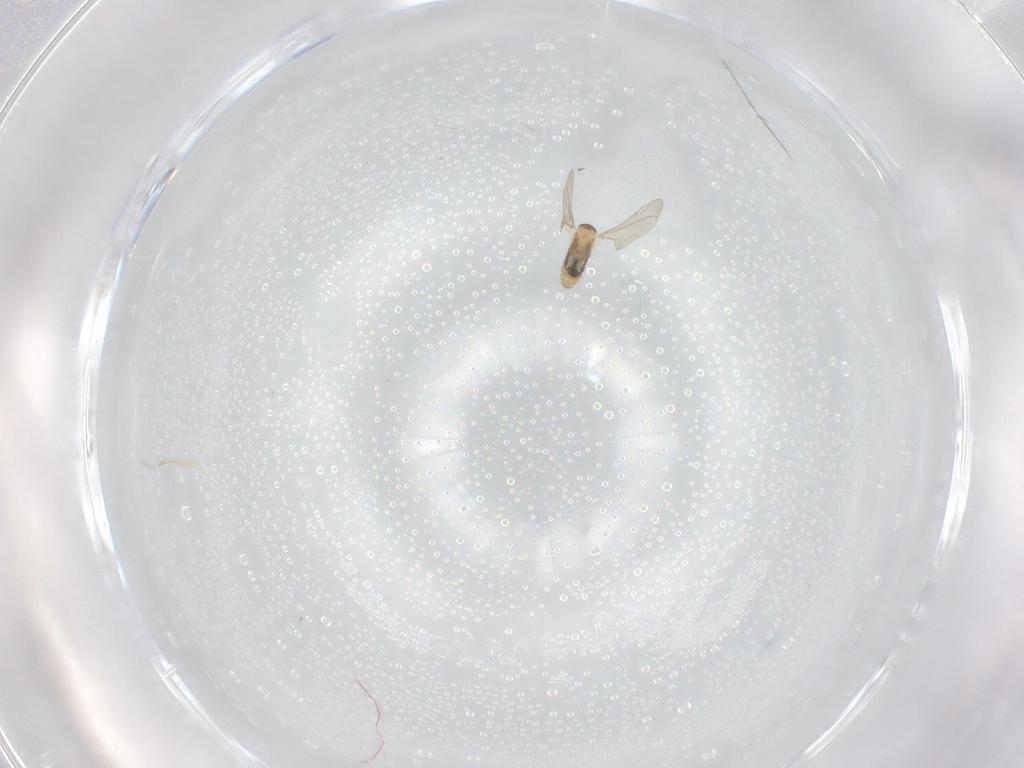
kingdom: Animalia
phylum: Arthropoda
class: Insecta
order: Diptera
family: Cecidomyiidae
